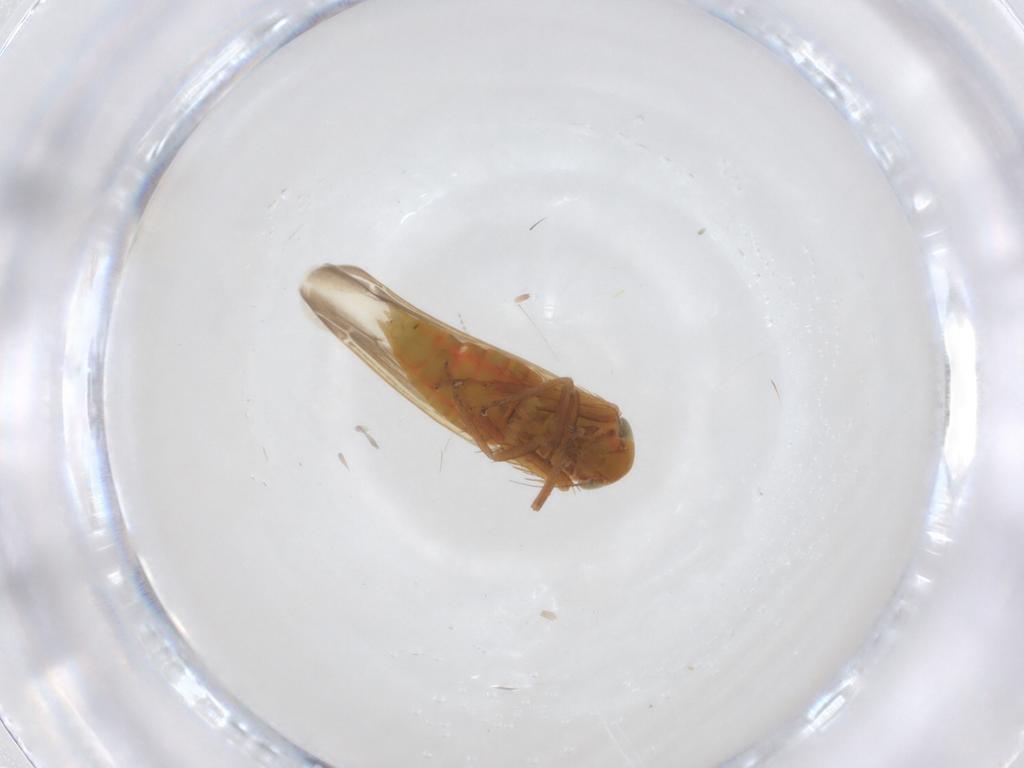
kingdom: Animalia
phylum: Arthropoda
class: Insecta
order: Hemiptera
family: Cicadellidae
